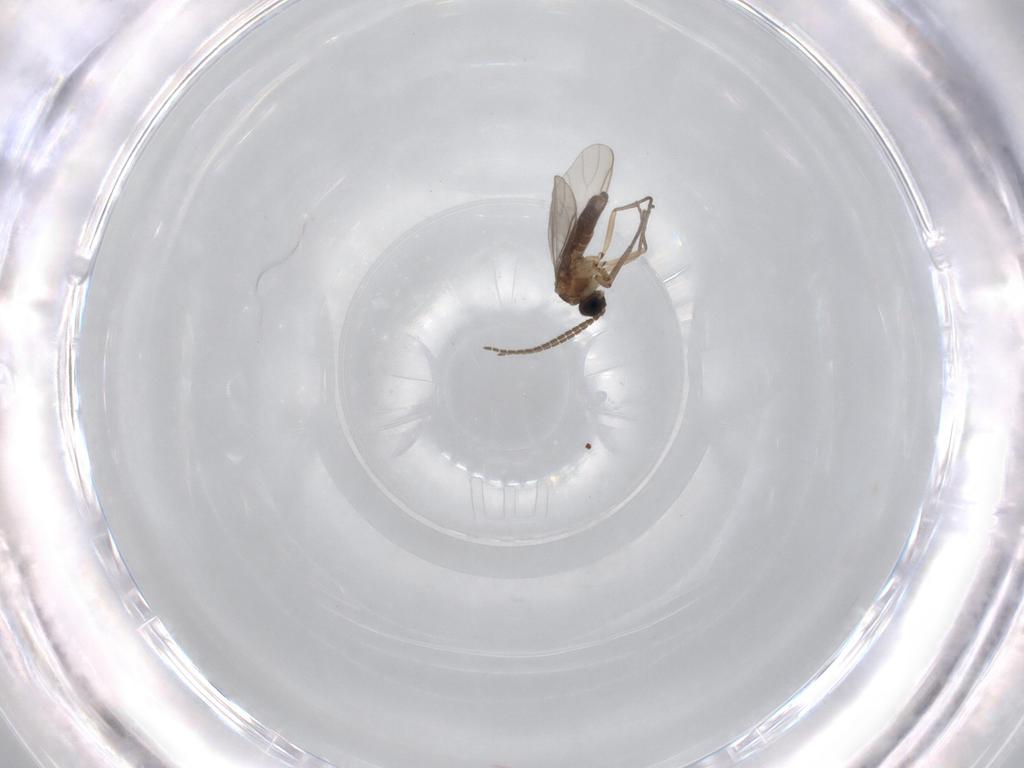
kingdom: Animalia
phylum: Arthropoda
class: Insecta
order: Diptera
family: Sciaridae
